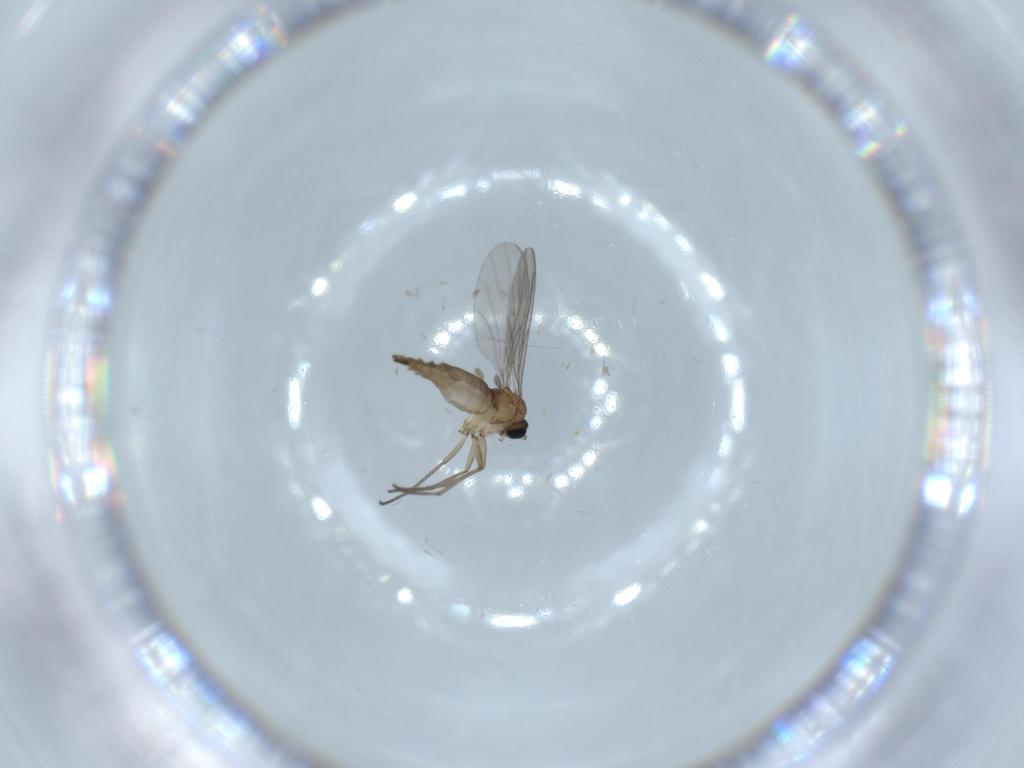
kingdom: Animalia
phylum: Arthropoda
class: Insecta
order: Diptera
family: Sciaridae
